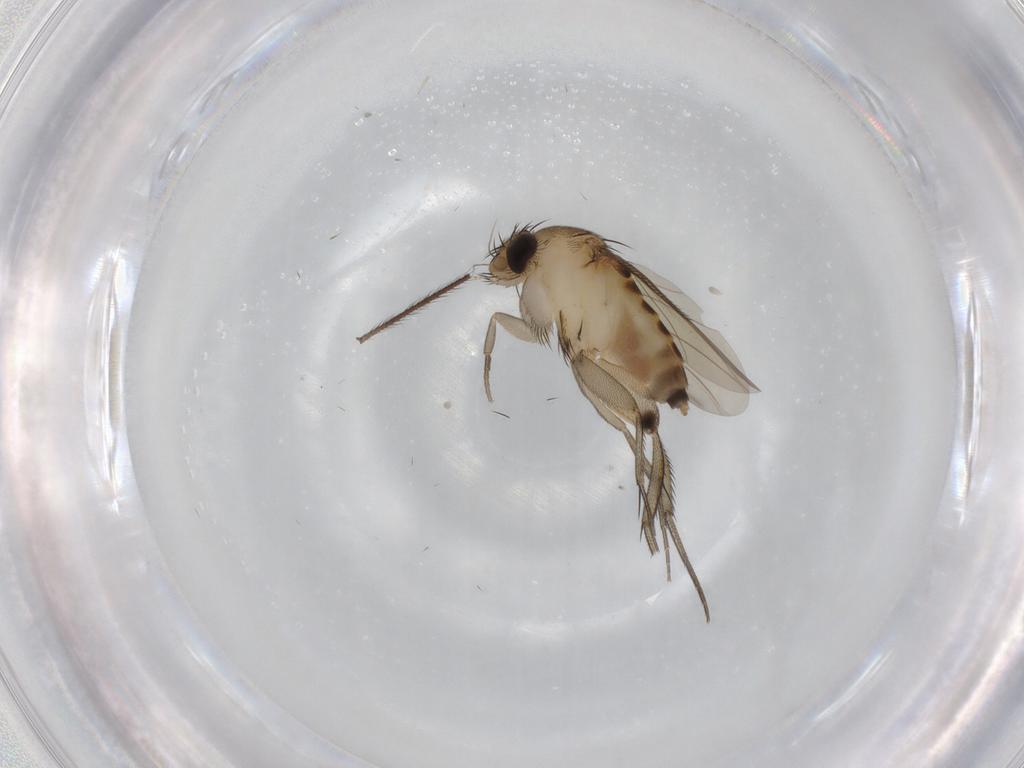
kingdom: Animalia
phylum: Arthropoda
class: Insecta
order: Diptera
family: Phoridae
